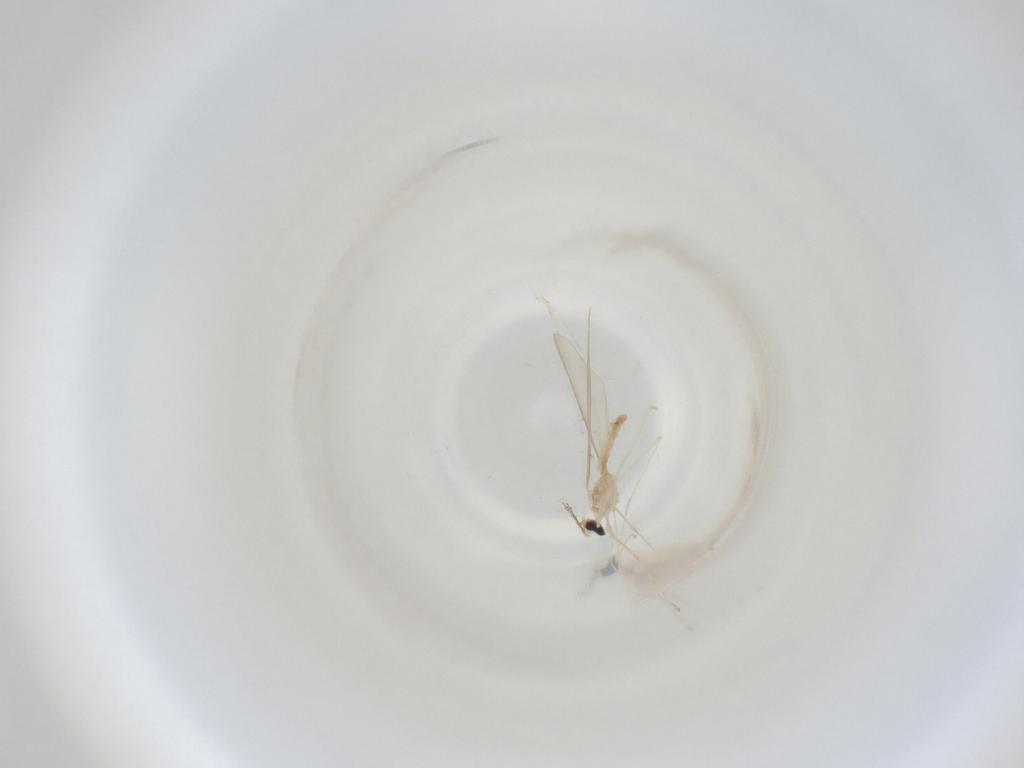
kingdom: Animalia
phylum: Arthropoda
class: Insecta
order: Diptera
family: Cecidomyiidae
